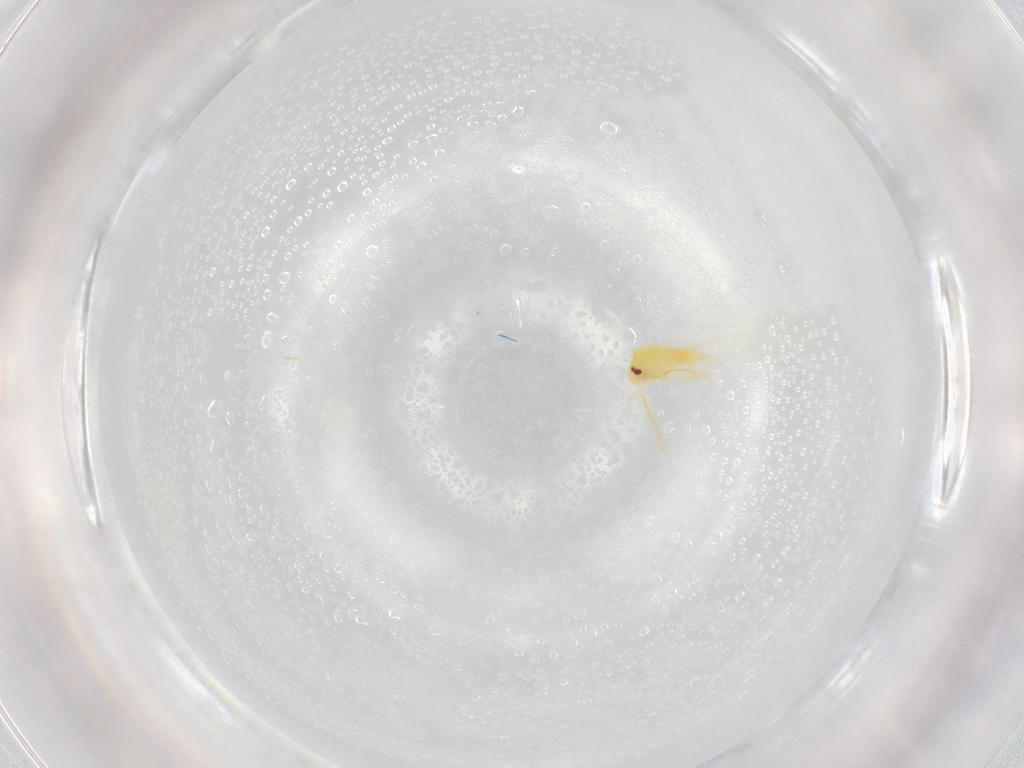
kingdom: Animalia
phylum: Arthropoda
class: Insecta
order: Hemiptera
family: Aleyrodidae
